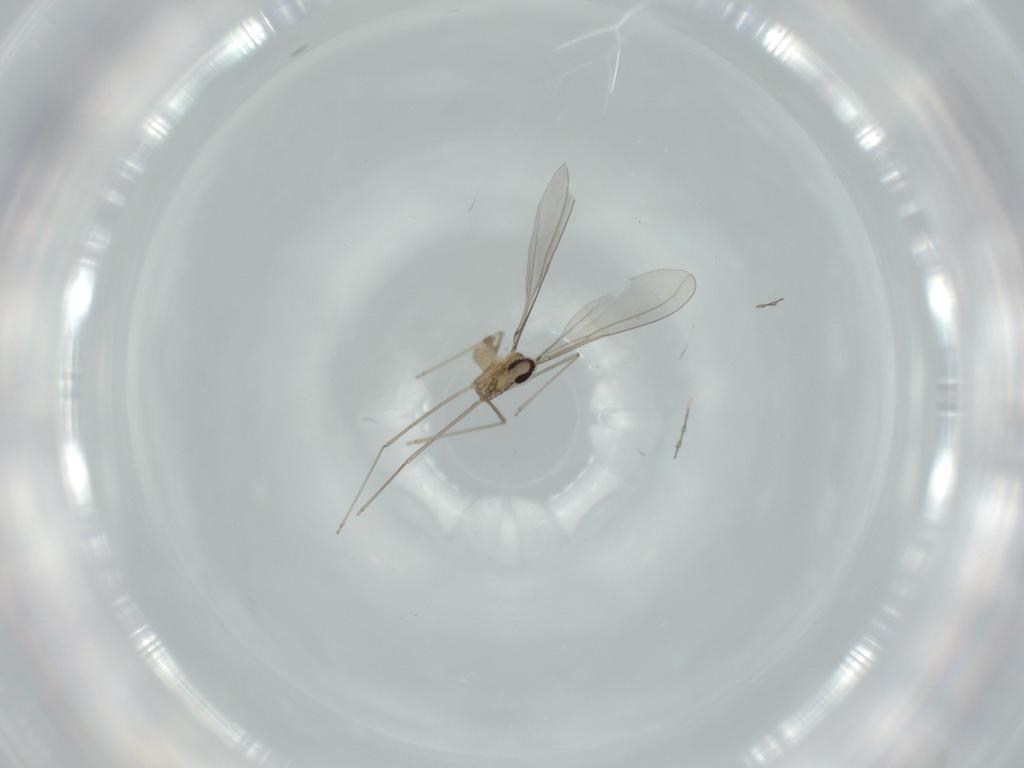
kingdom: Animalia
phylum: Arthropoda
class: Insecta
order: Diptera
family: Cecidomyiidae
